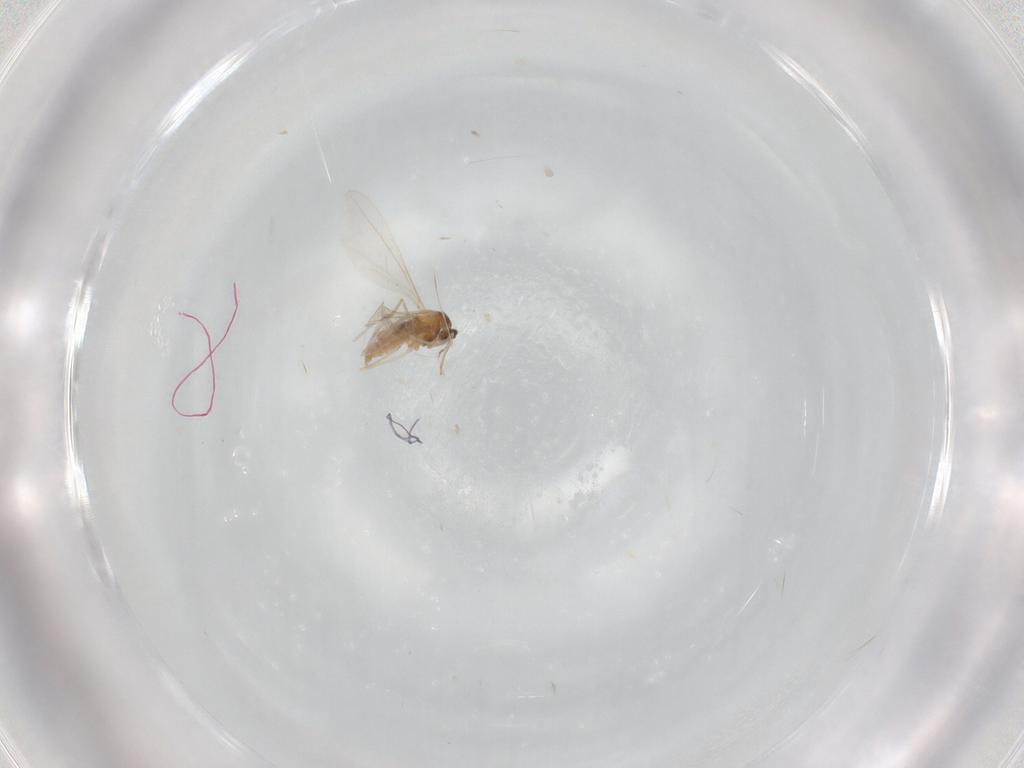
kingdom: Animalia
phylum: Arthropoda
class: Insecta
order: Diptera
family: Cecidomyiidae
